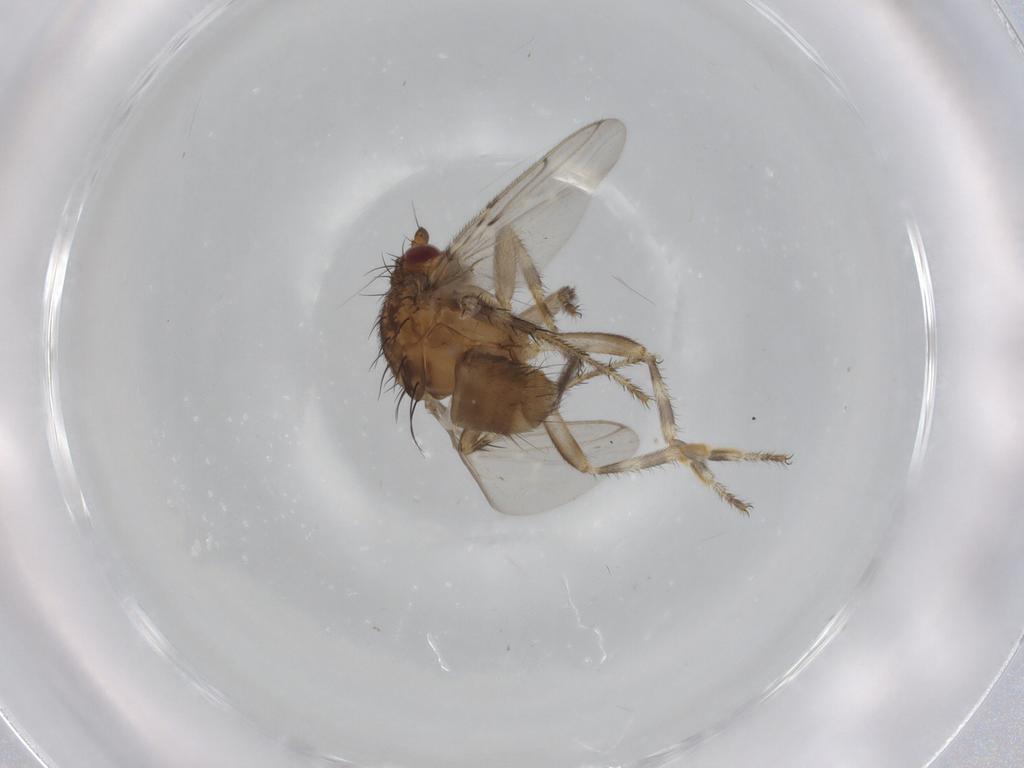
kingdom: Animalia
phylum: Arthropoda
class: Insecta
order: Diptera
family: Sphaeroceridae
